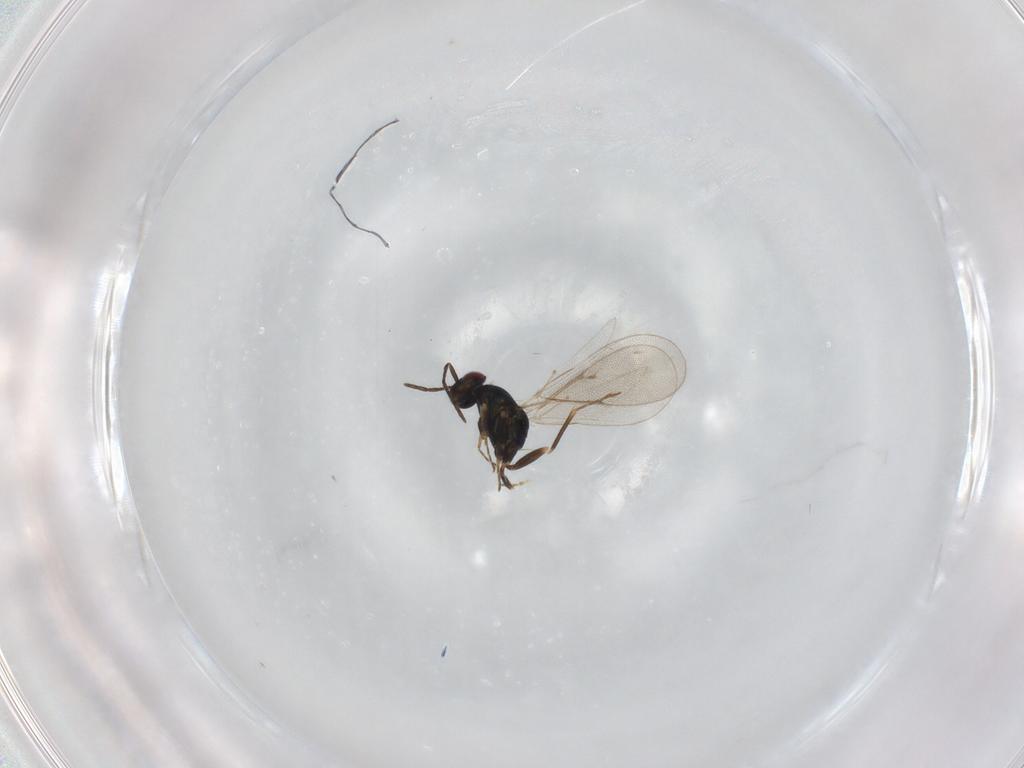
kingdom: Animalia
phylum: Arthropoda
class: Insecta
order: Hymenoptera
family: Eulophidae
